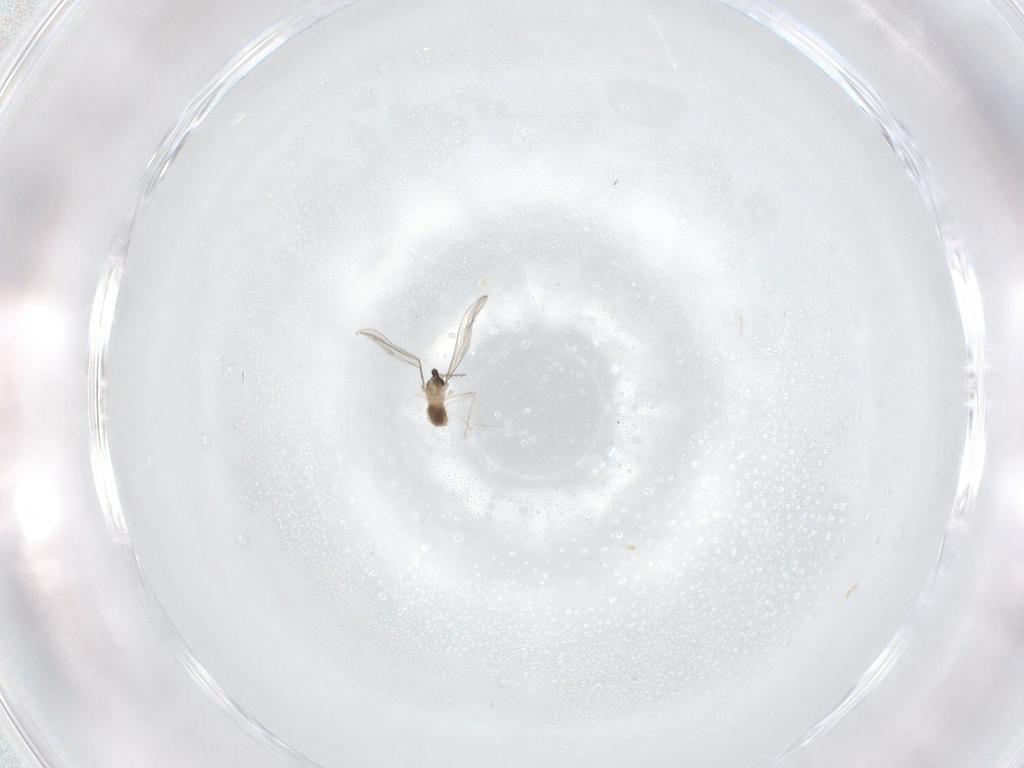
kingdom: Animalia
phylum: Arthropoda
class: Insecta
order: Diptera
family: Cecidomyiidae
